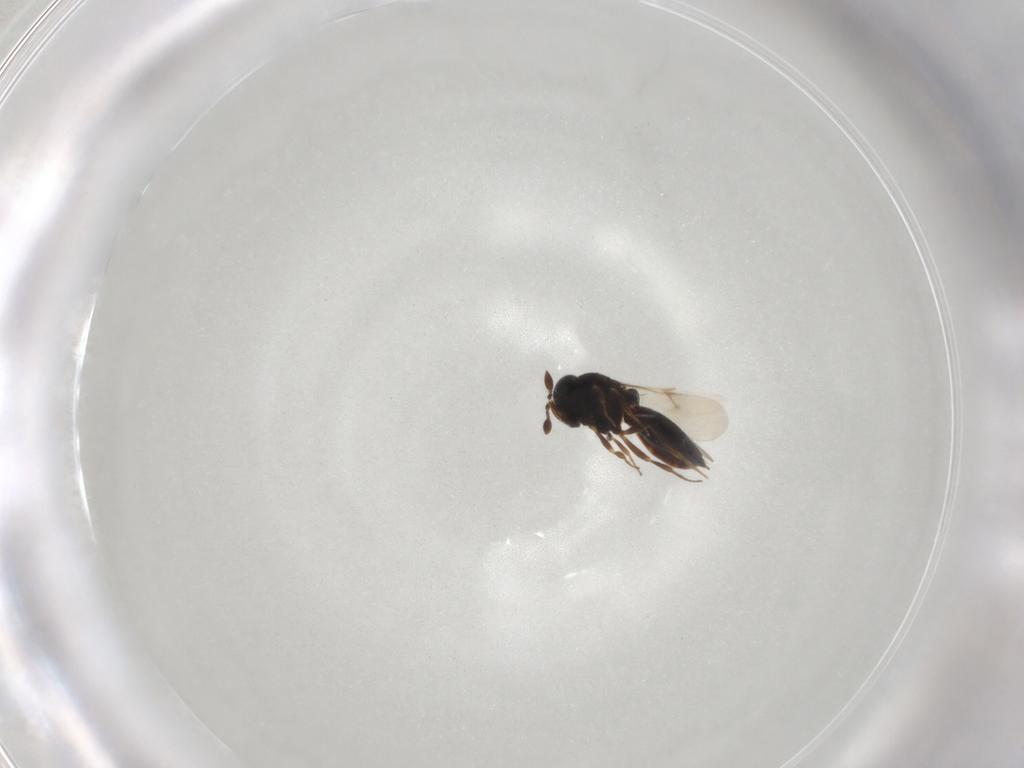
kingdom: Animalia
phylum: Arthropoda
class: Insecta
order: Hymenoptera
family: Scelionidae
